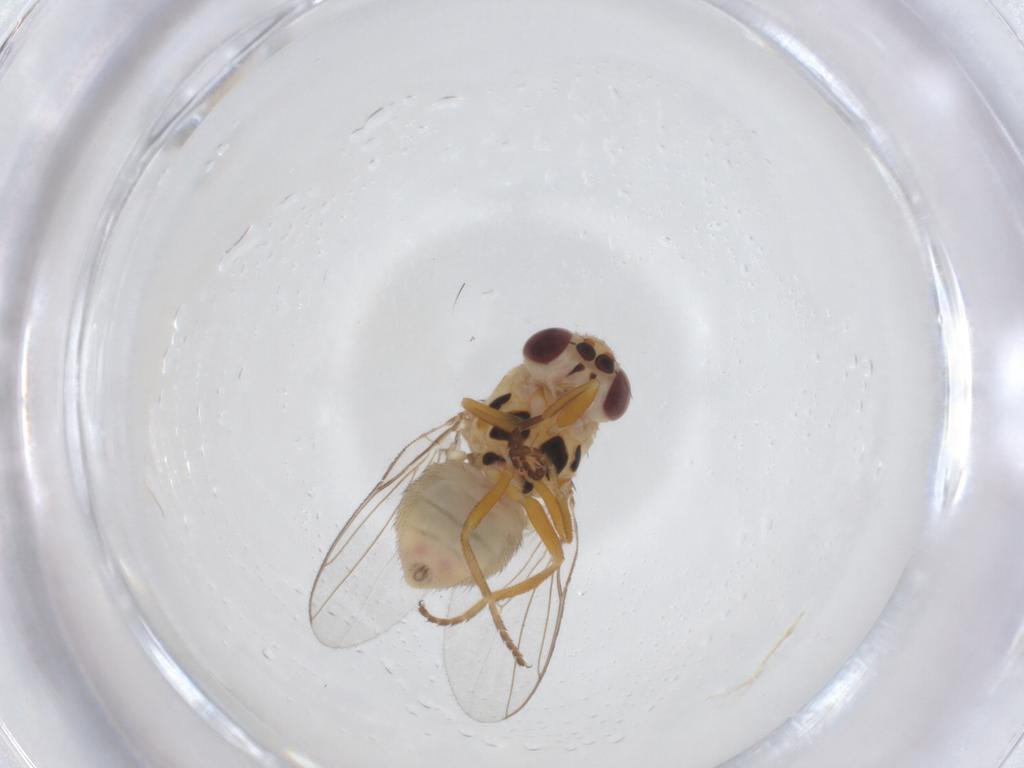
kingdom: Animalia
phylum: Arthropoda
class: Insecta
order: Diptera
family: Chloropidae
